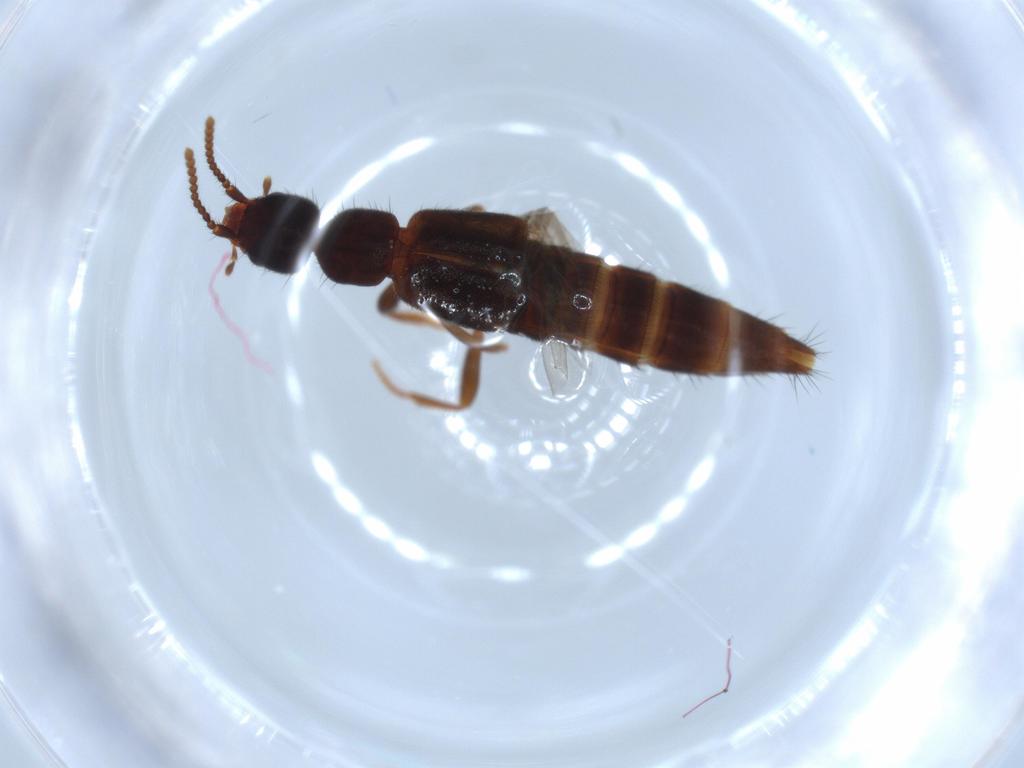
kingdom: Animalia
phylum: Arthropoda
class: Insecta
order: Coleoptera
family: Staphylinidae
